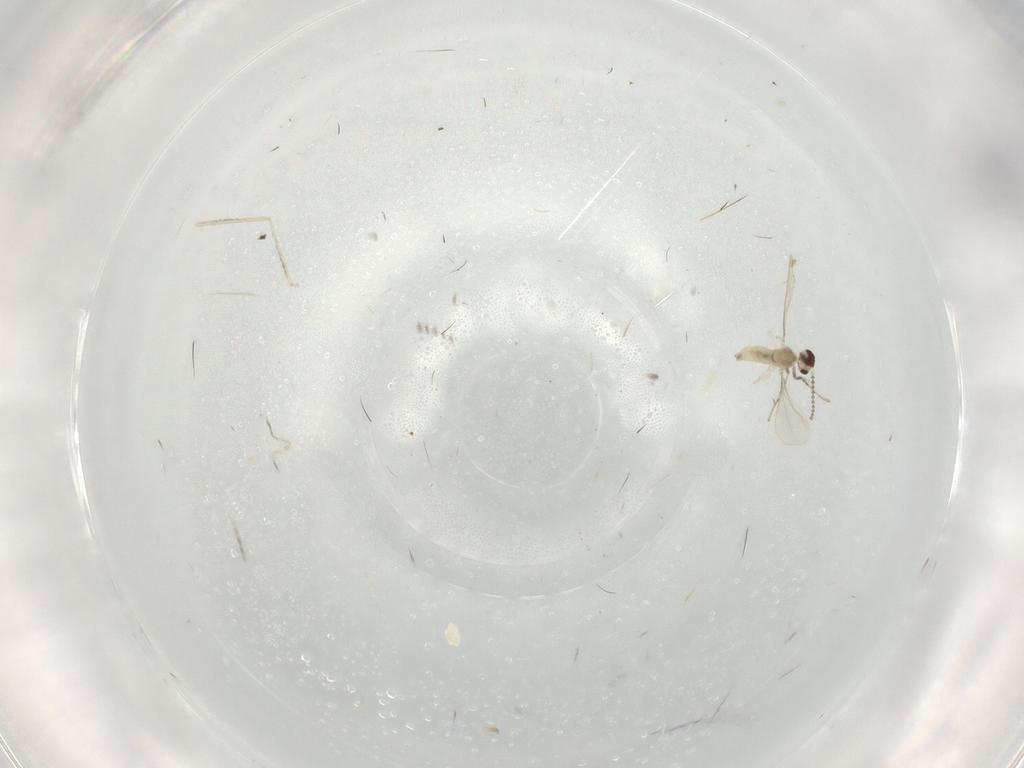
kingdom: Animalia
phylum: Arthropoda
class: Insecta
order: Diptera
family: Cecidomyiidae
